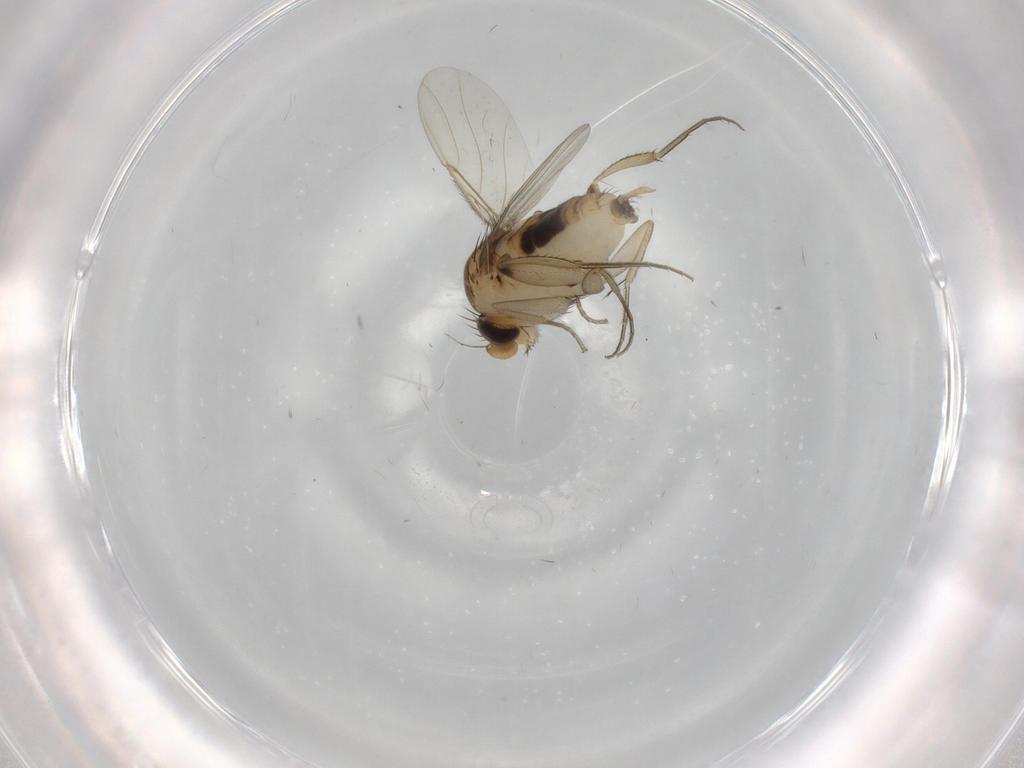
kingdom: Animalia
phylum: Arthropoda
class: Insecta
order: Diptera
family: Phoridae
